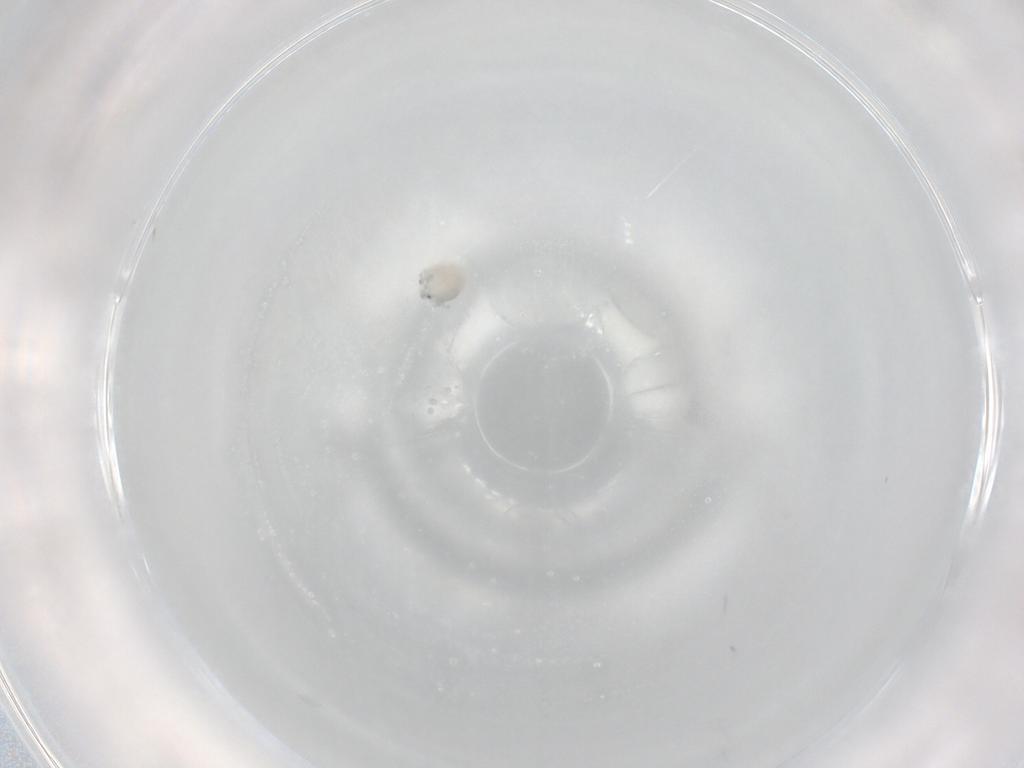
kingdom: Animalia
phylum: Arthropoda
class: Arachnida
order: Trombidiformes
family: Arrenuridae
